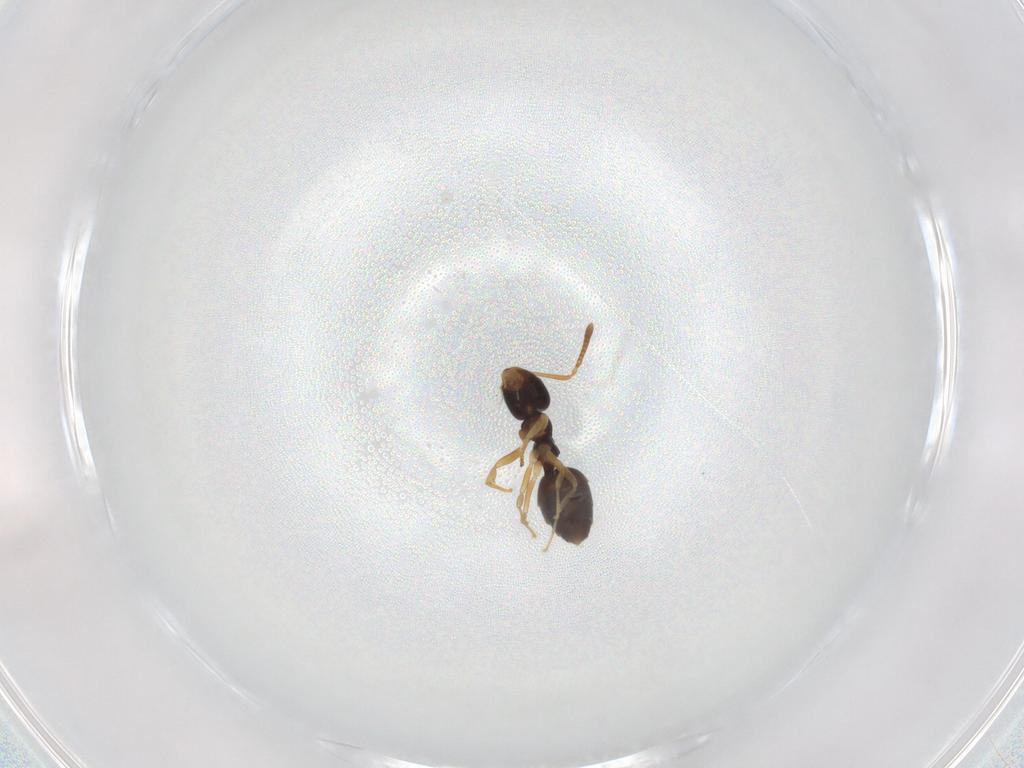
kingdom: Animalia
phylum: Arthropoda
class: Insecta
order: Hymenoptera
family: Formicidae
